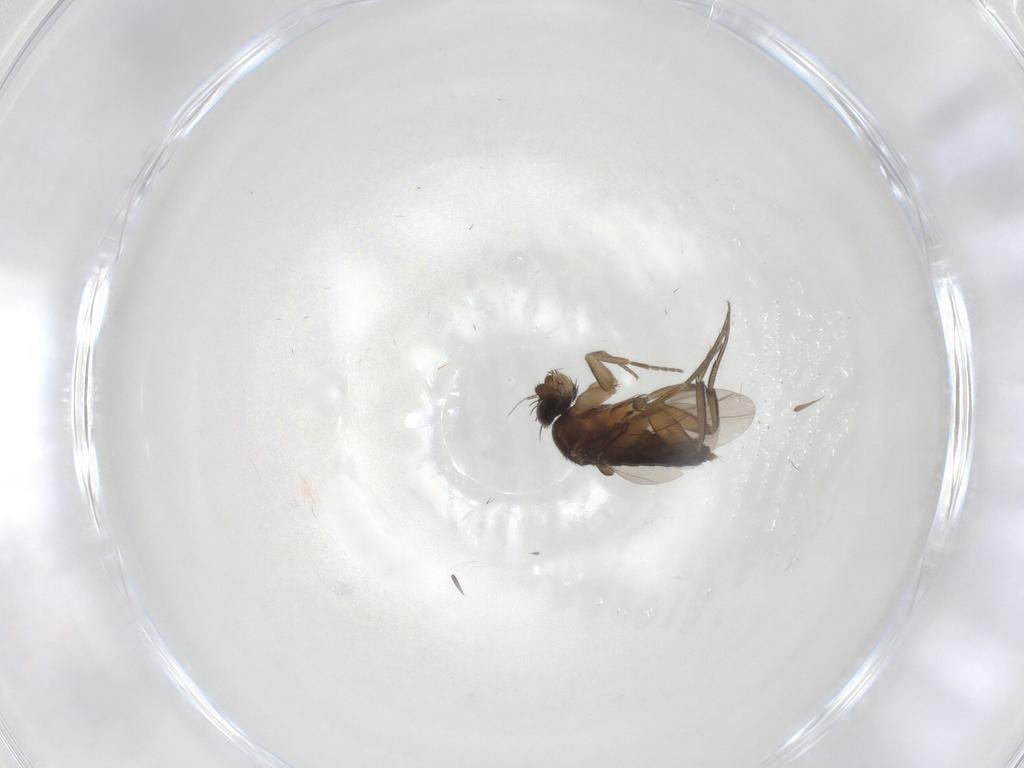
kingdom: Animalia
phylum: Arthropoda
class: Insecta
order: Diptera
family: Phoridae
